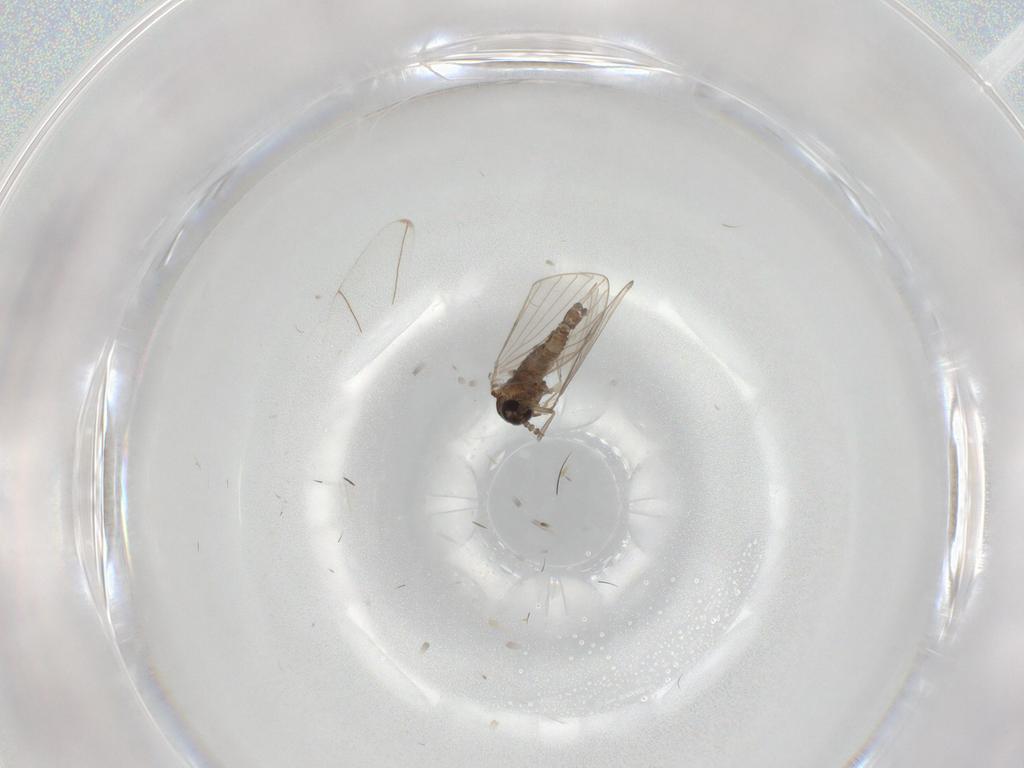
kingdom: Animalia
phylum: Arthropoda
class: Insecta
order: Diptera
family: Psychodidae
